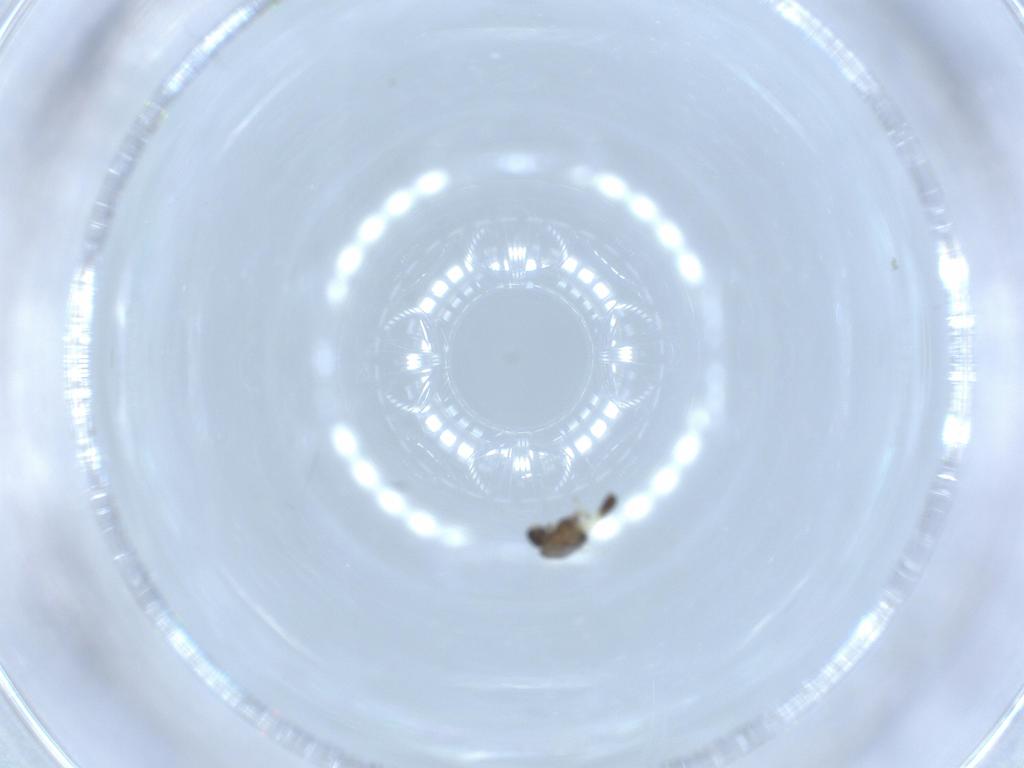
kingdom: Animalia
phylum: Arthropoda
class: Insecta
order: Diptera
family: Chironomidae
